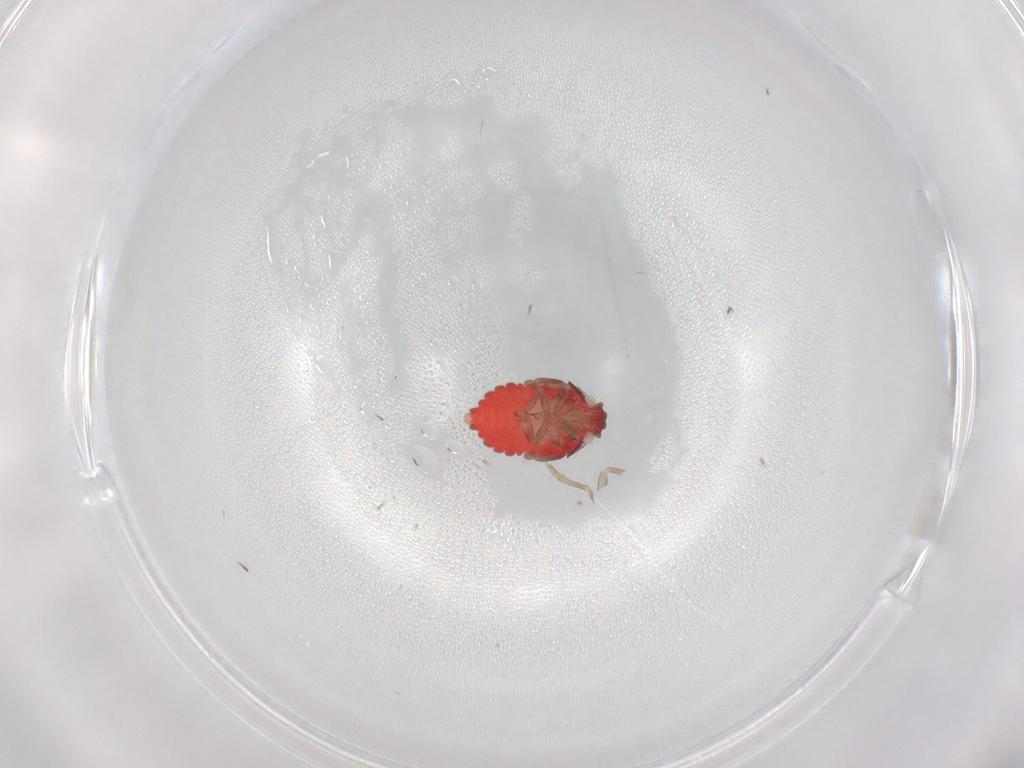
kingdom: Animalia
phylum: Arthropoda
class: Insecta
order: Hemiptera
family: Derbidae
